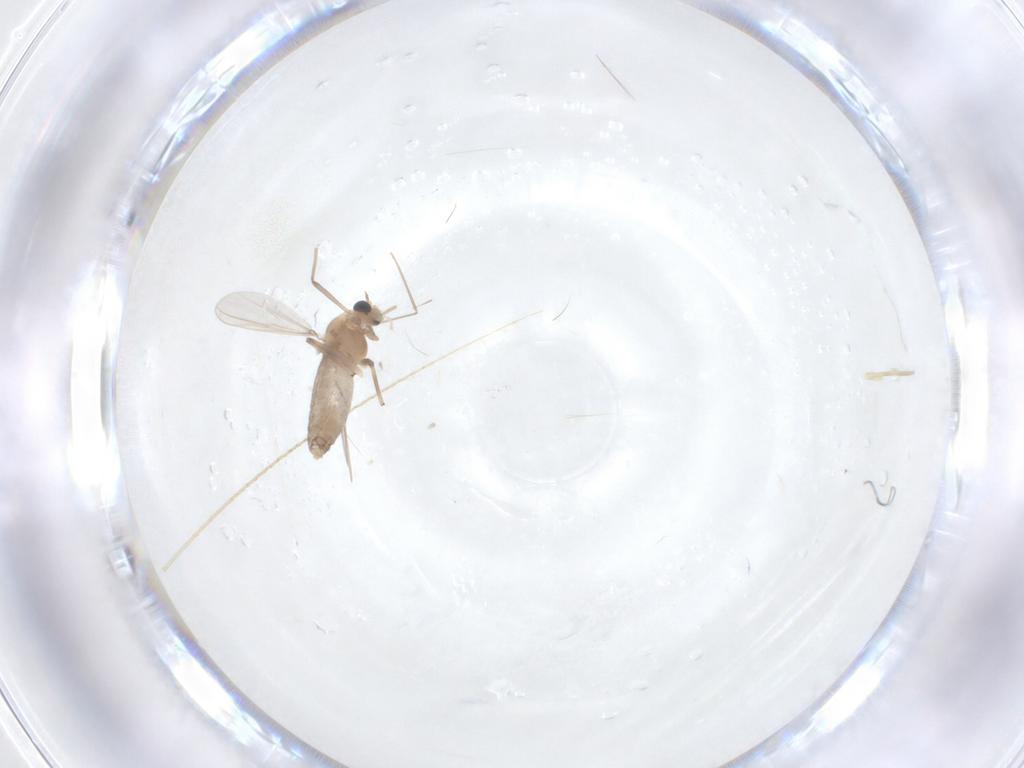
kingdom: Animalia
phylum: Arthropoda
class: Insecta
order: Diptera
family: Chironomidae
